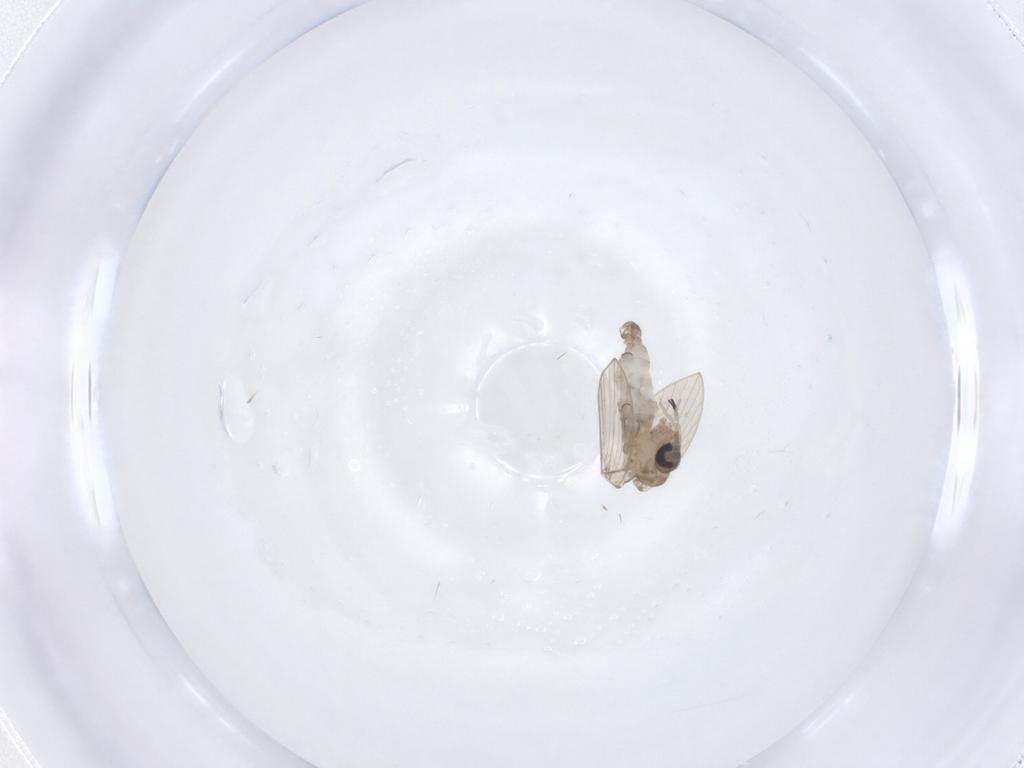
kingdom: Animalia
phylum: Arthropoda
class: Insecta
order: Diptera
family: Psychodidae
